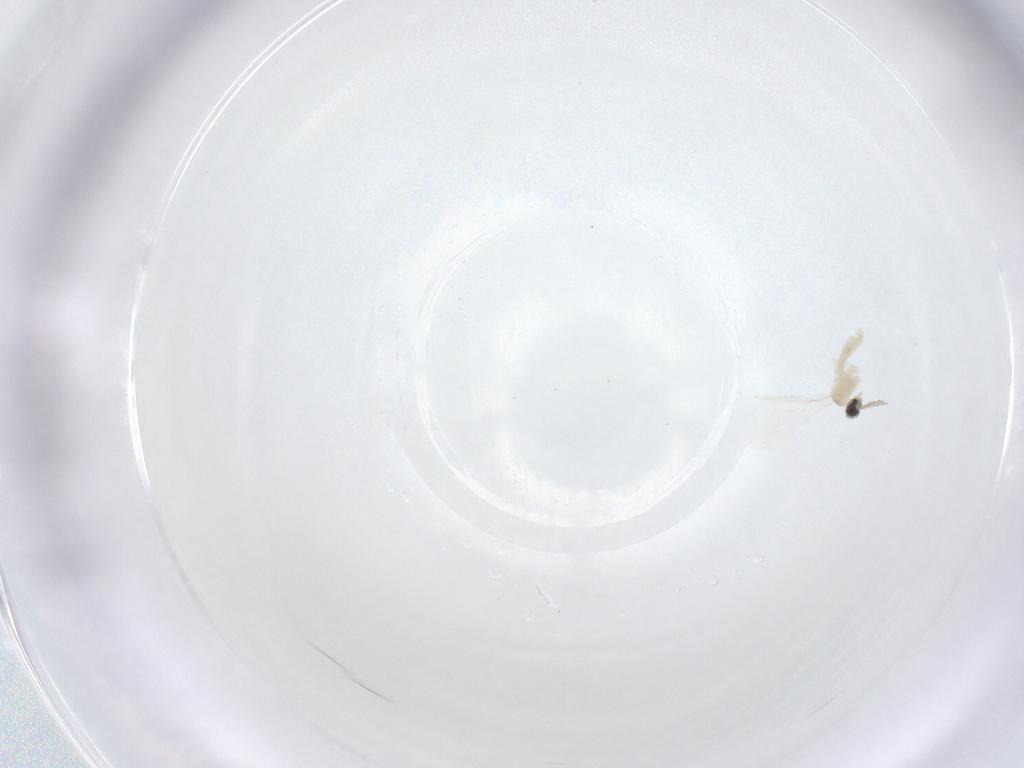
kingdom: Animalia
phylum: Arthropoda
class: Insecta
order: Diptera
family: Cecidomyiidae
